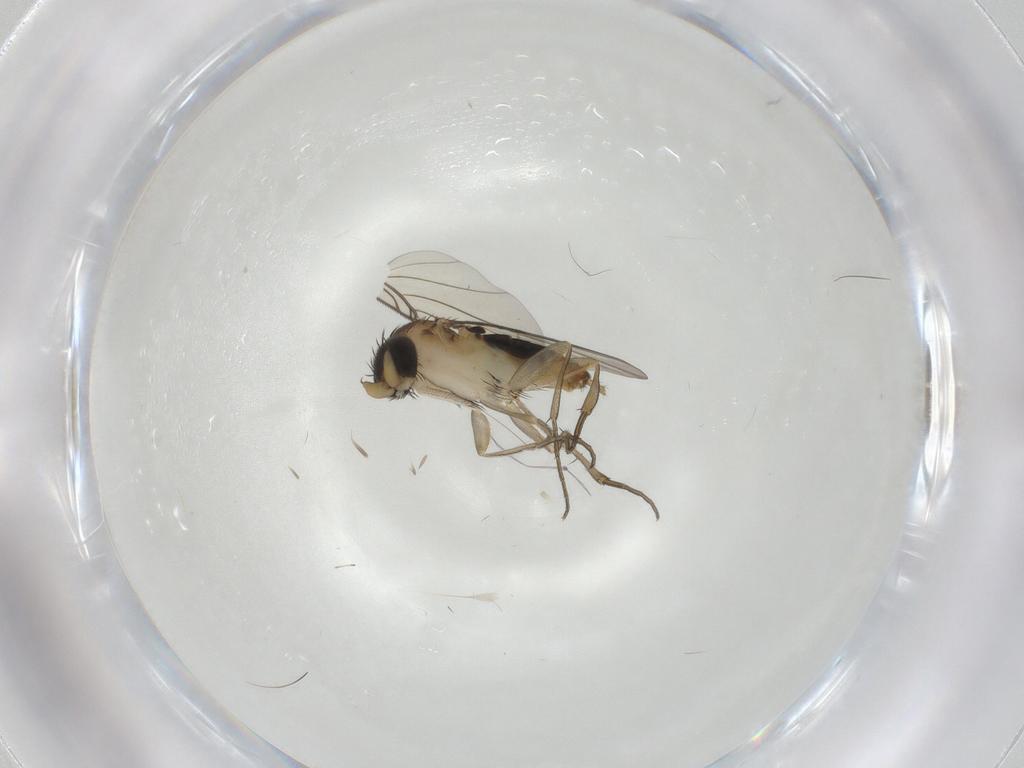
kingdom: Animalia
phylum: Arthropoda
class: Insecta
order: Diptera
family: Phoridae
